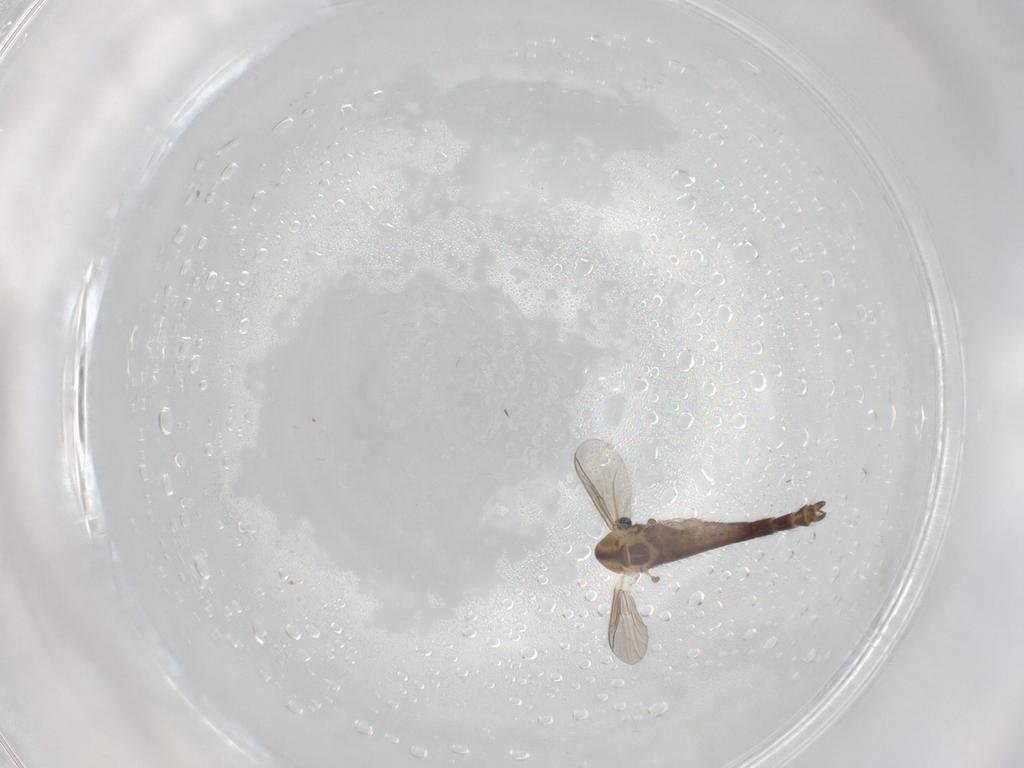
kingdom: Animalia
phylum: Arthropoda
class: Insecta
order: Diptera
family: Chironomidae
